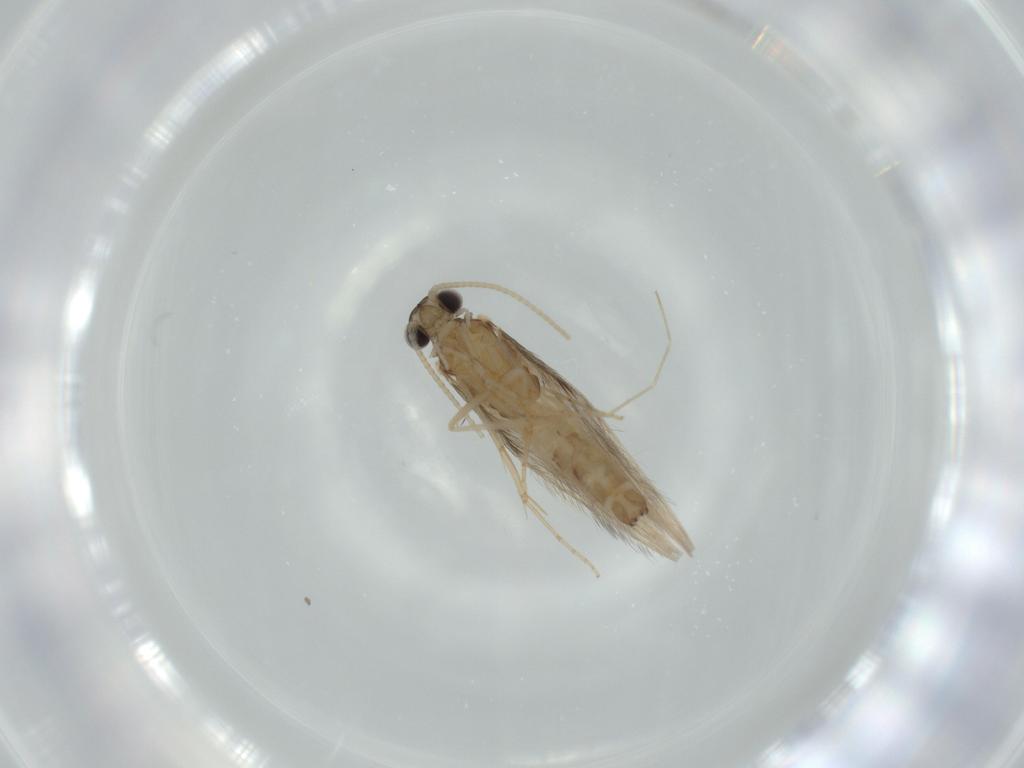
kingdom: Animalia
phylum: Arthropoda
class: Insecta
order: Trichoptera
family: Hydroptilidae
